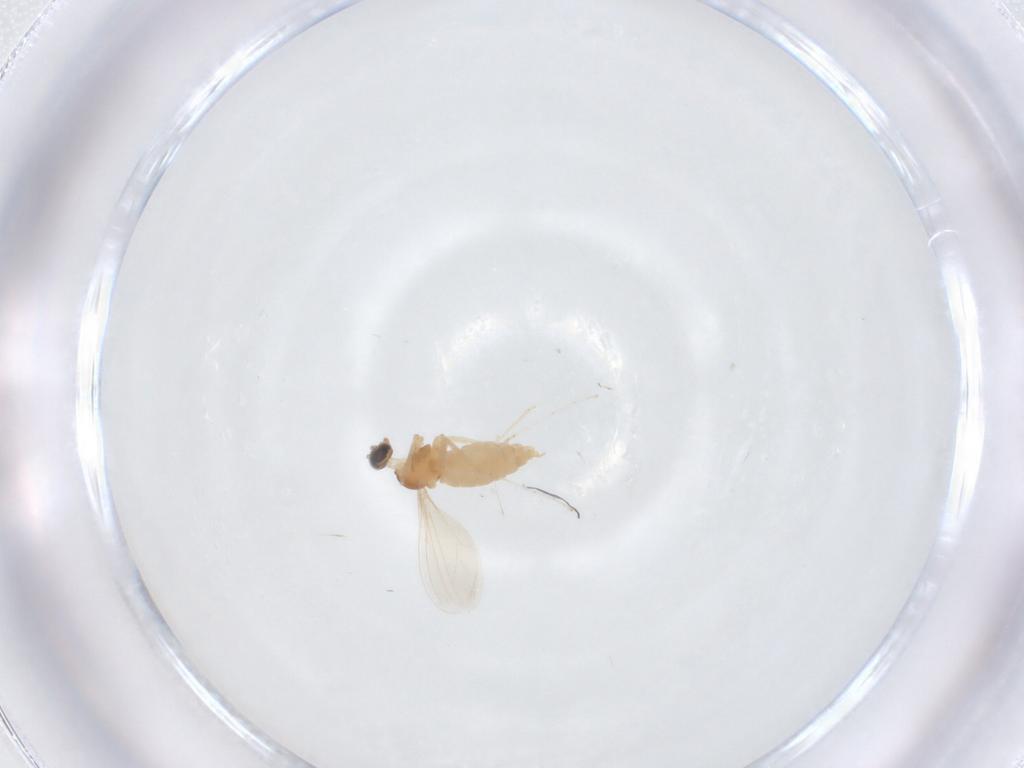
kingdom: Animalia
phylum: Arthropoda
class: Insecta
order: Diptera
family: Cecidomyiidae
